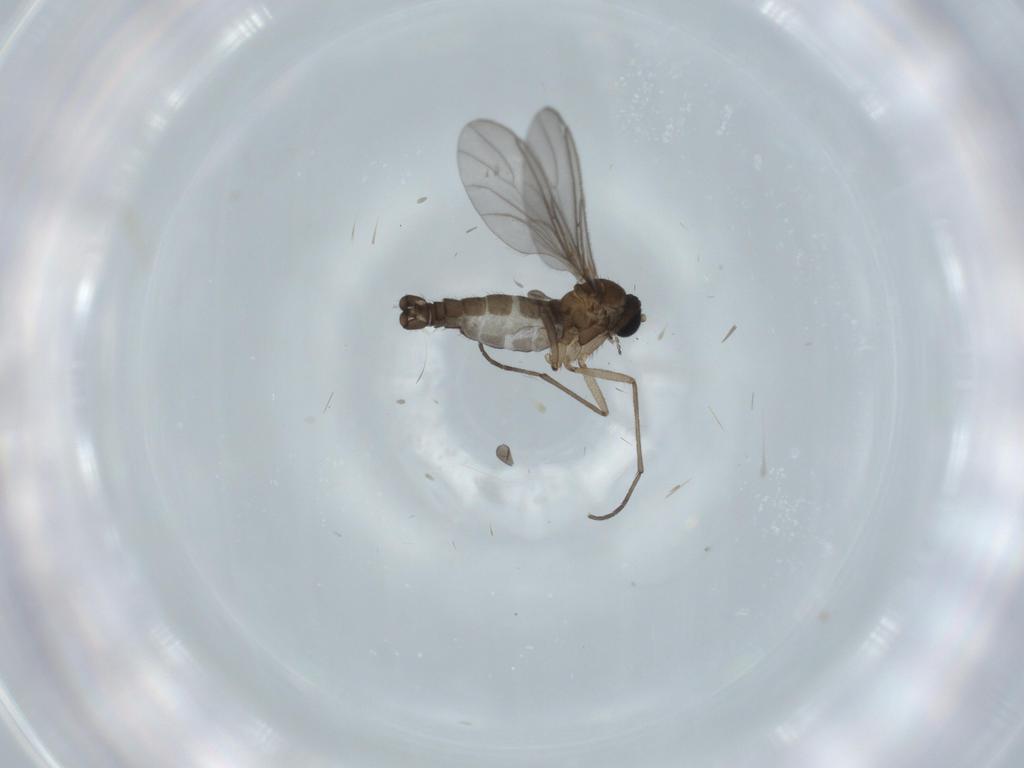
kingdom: Animalia
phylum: Arthropoda
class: Insecta
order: Diptera
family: Sciaridae
